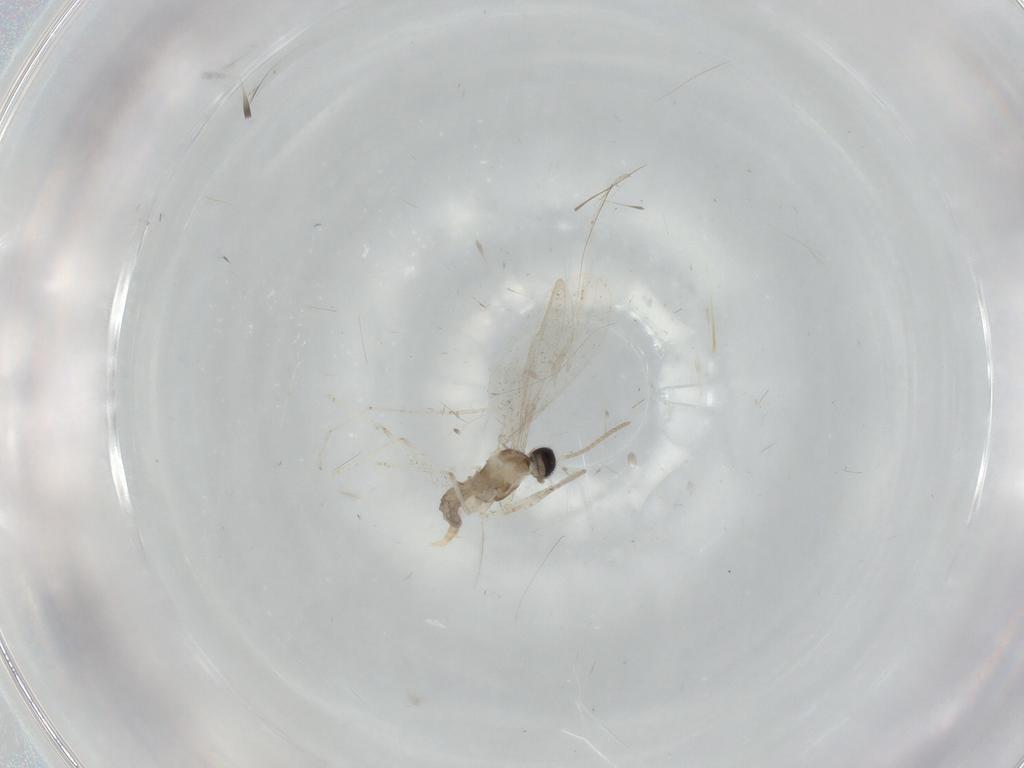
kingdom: Animalia
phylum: Arthropoda
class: Insecta
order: Diptera
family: Cecidomyiidae
